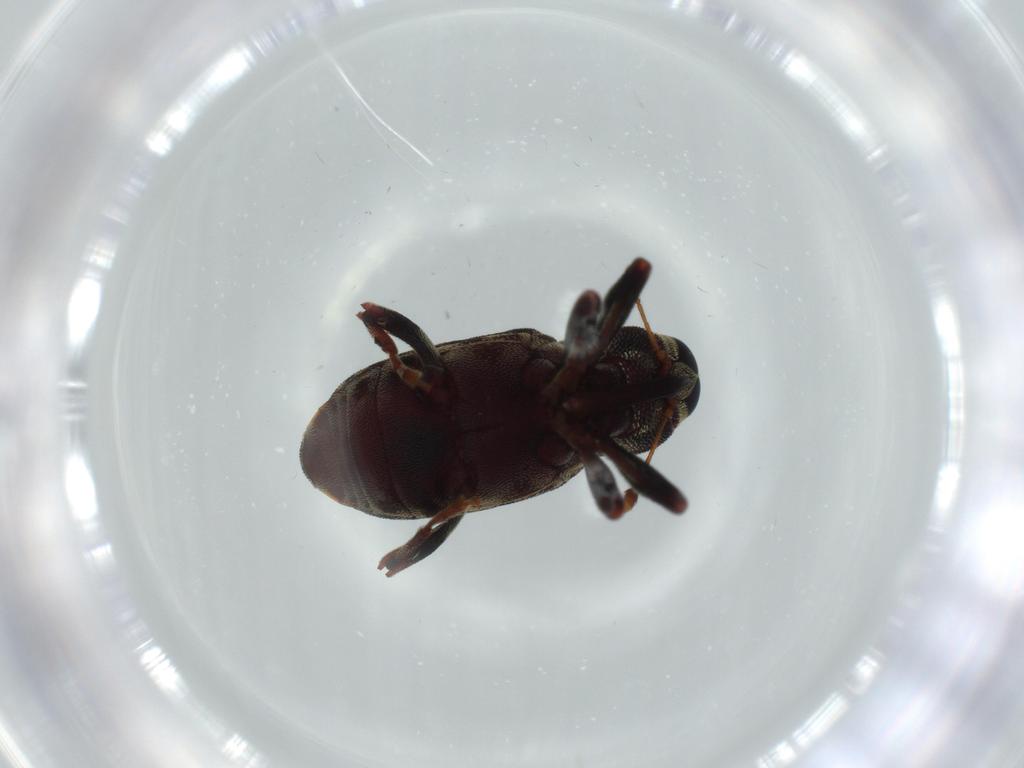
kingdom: Animalia
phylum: Arthropoda
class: Insecta
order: Coleoptera
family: Curculionidae
